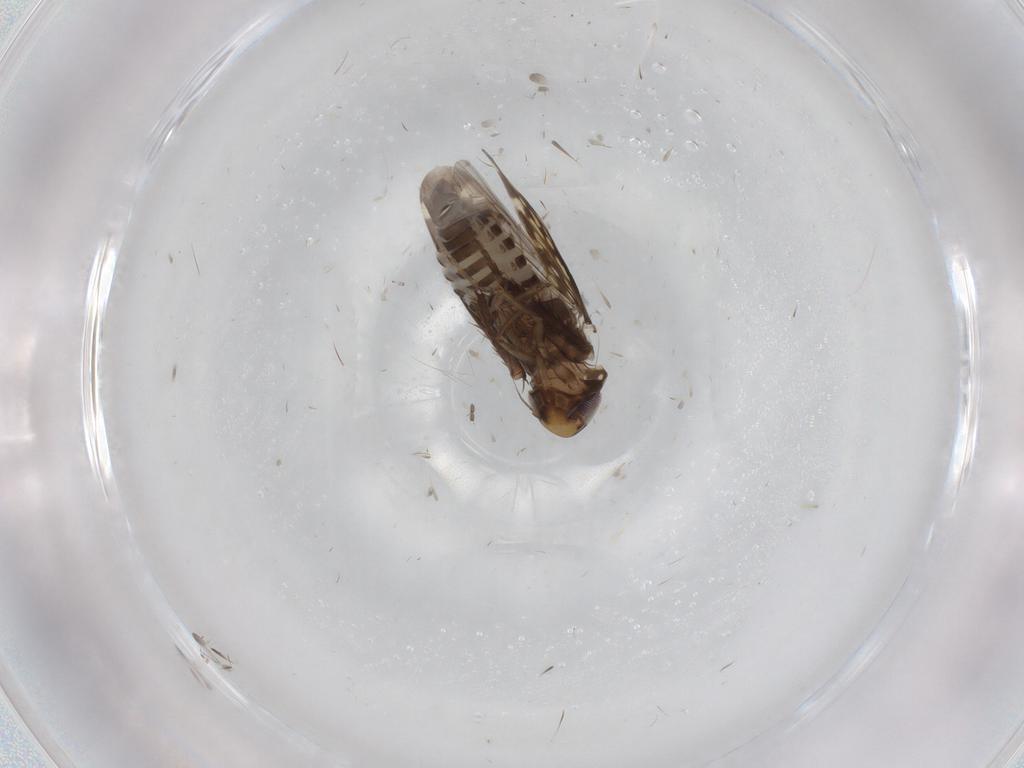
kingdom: Animalia
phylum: Arthropoda
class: Insecta
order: Hemiptera
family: Cicadellidae
